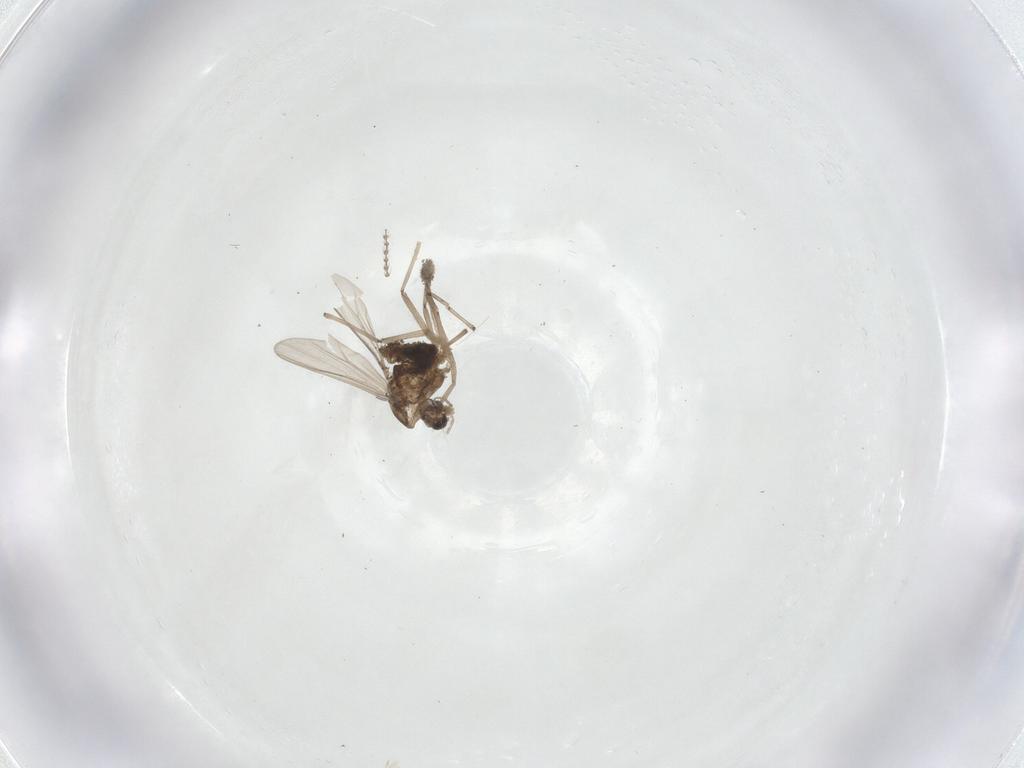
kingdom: Animalia
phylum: Arthropoda
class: Insecta
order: Diptera
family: Chironomidae
